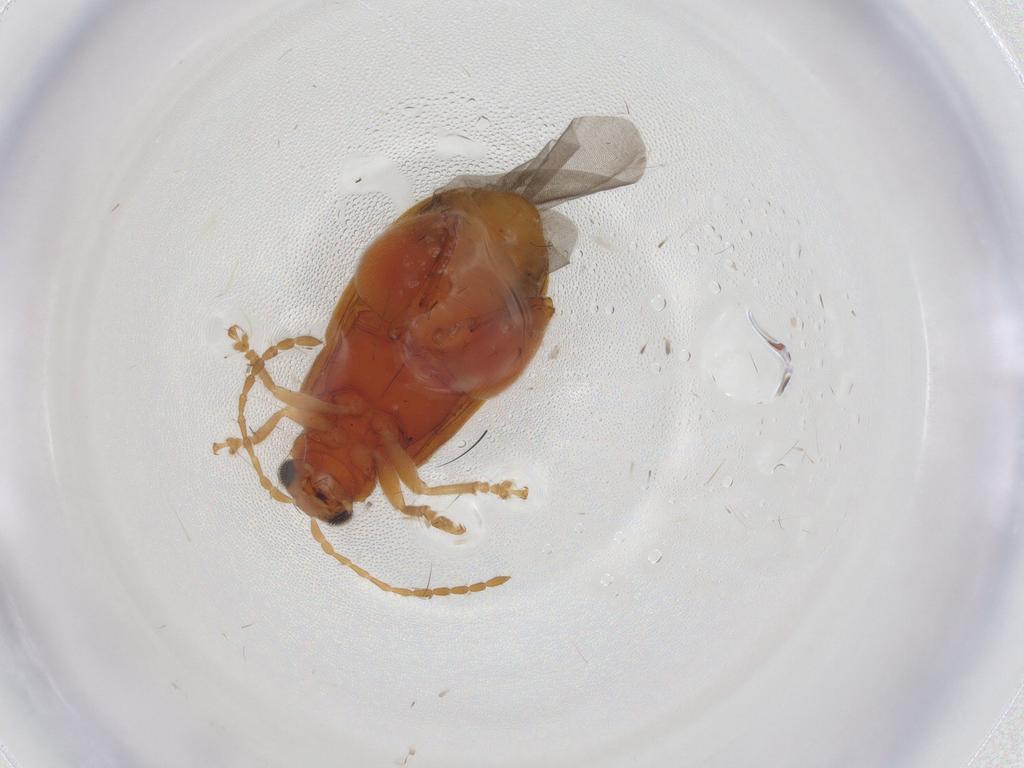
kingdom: Animalia
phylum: Arthropoda
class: Insecta
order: Coleoptera
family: Chrysomelidae
